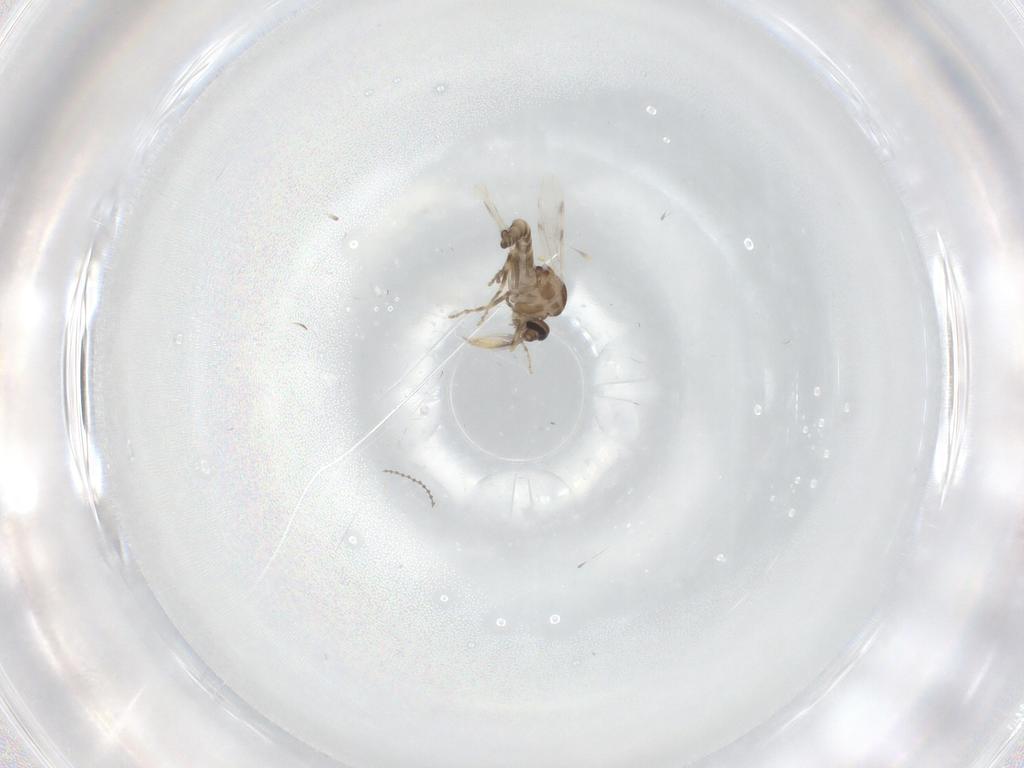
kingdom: Animalia
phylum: Arthropoda
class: Insecta
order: Diptera
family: Ceratopogonidae
